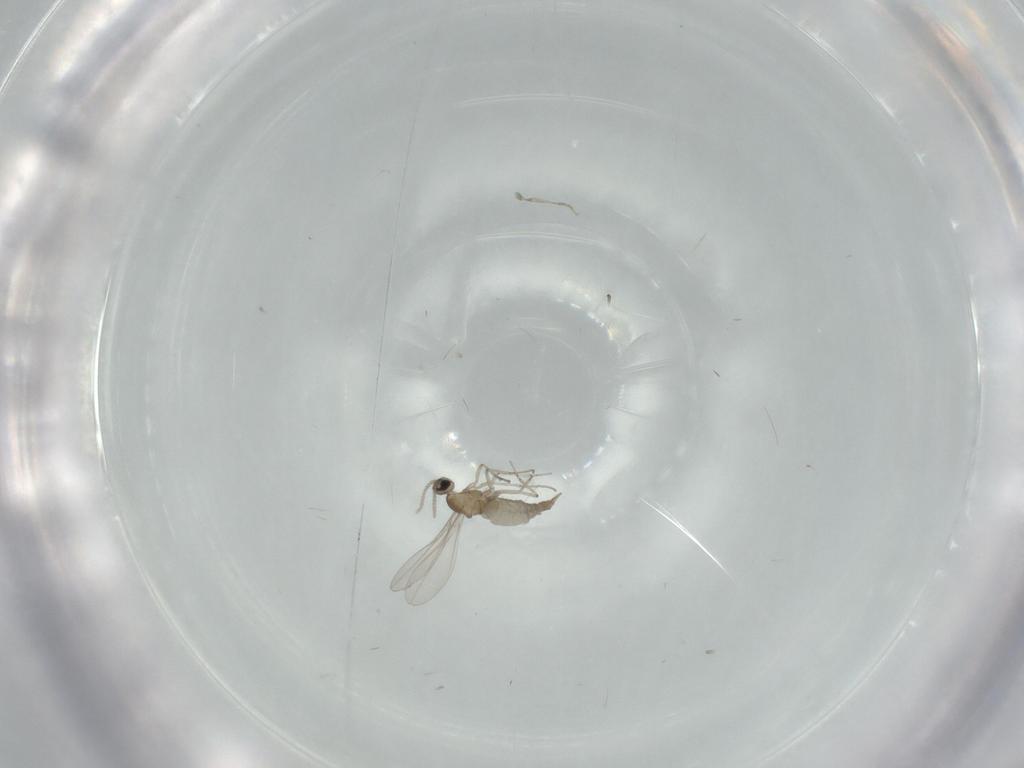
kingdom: Animalia
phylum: Arthropoda
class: Insecta
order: Diptera
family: Cecidomyiidae
